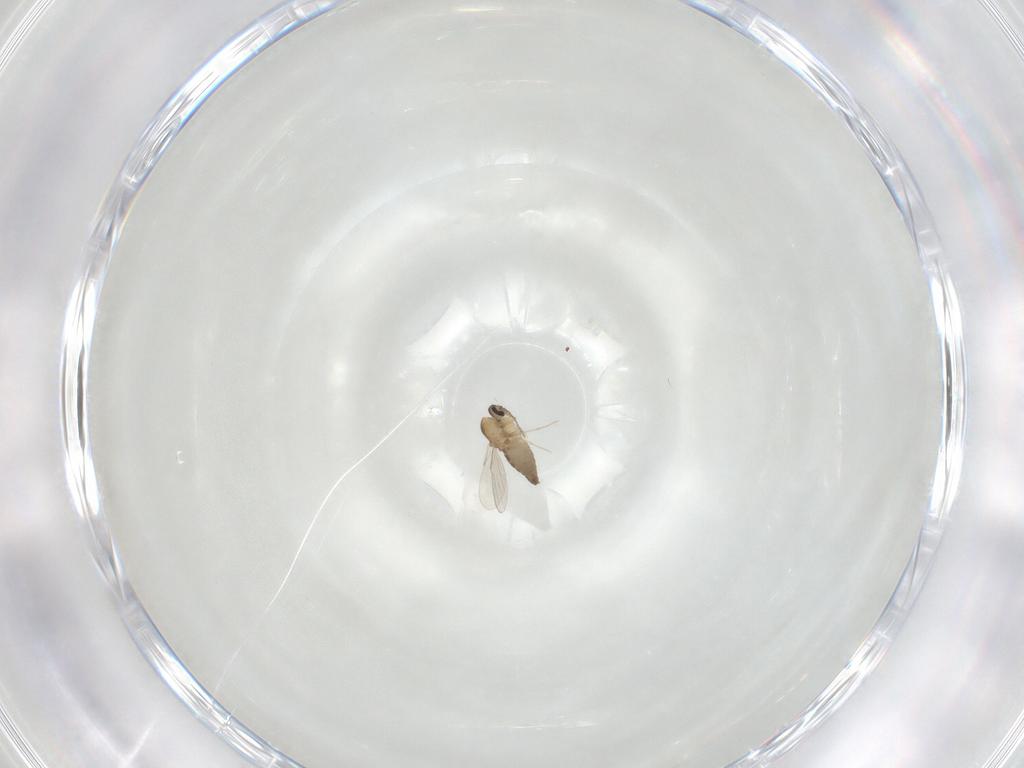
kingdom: Animalia
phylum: Arthropoda
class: Insecta
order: Diptera
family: Ceratopogonidae
